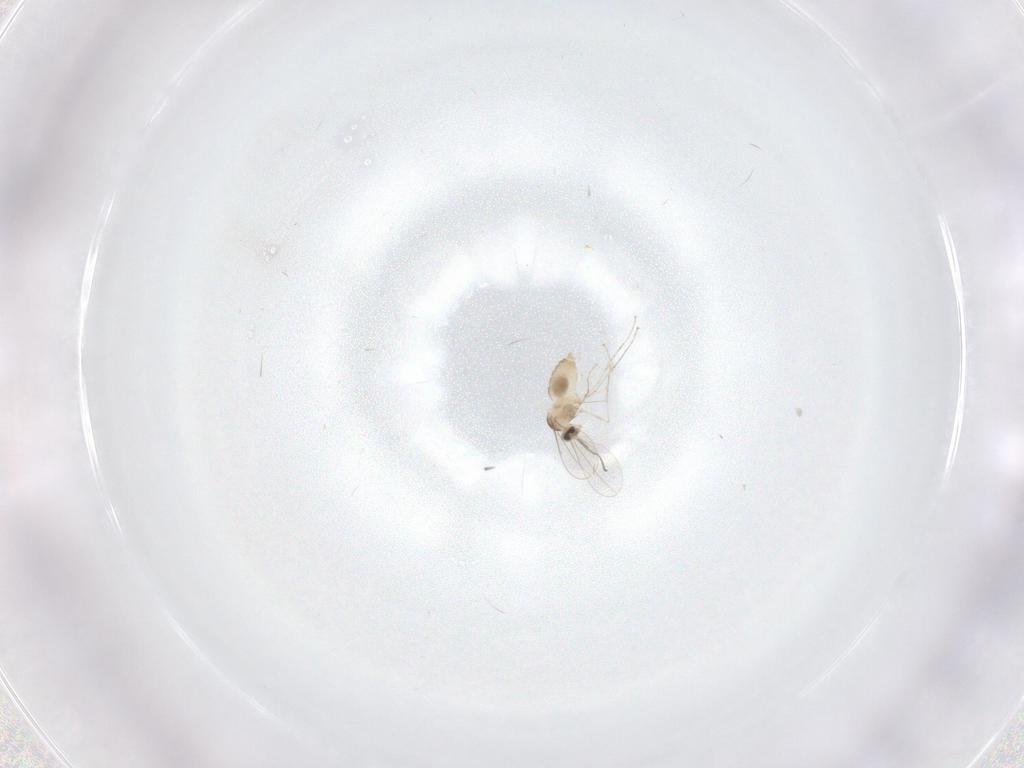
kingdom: Animalia
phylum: Arthropoda
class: Insecta
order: Diptera
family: Cecidomyiidae
